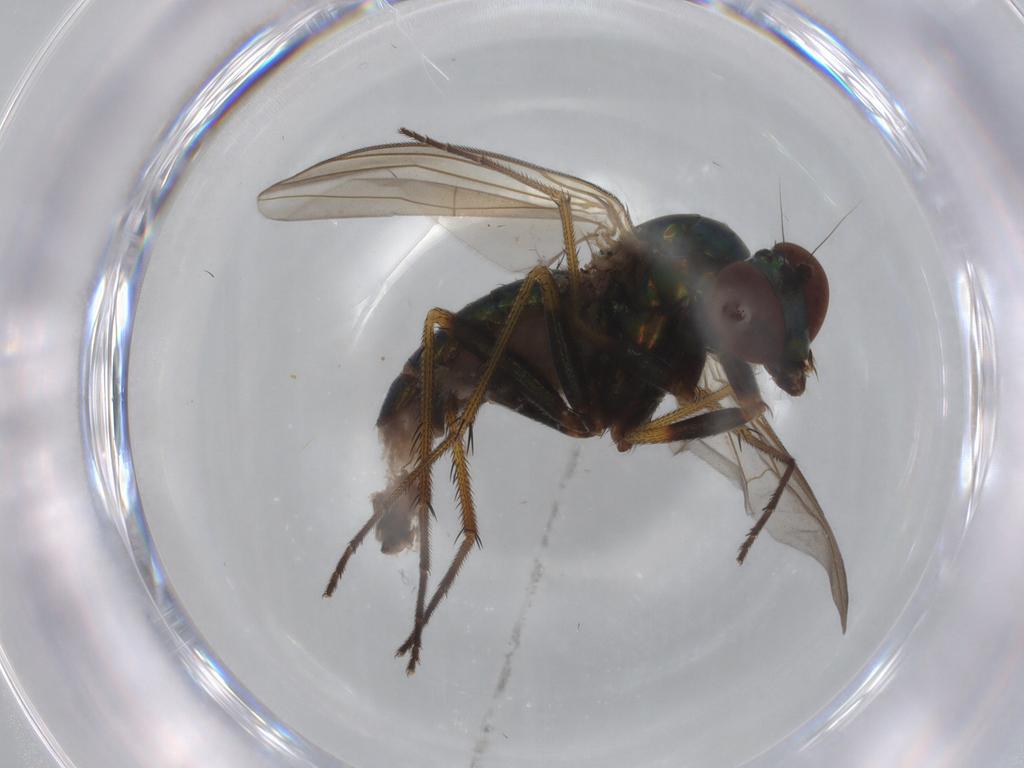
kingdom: Animalia
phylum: Arthropoda
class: Insecta
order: Diptera
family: Dolichopodidae
